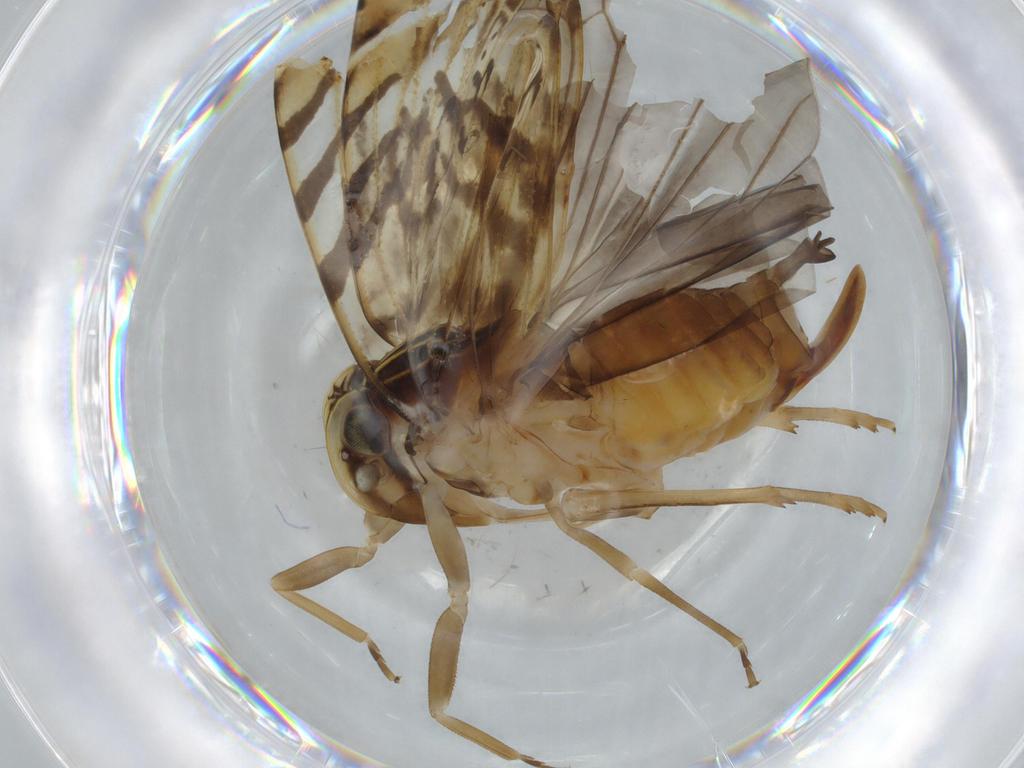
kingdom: Animalia
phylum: Arthropoda
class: Insecta
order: Hemiptera
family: Cixiidae
